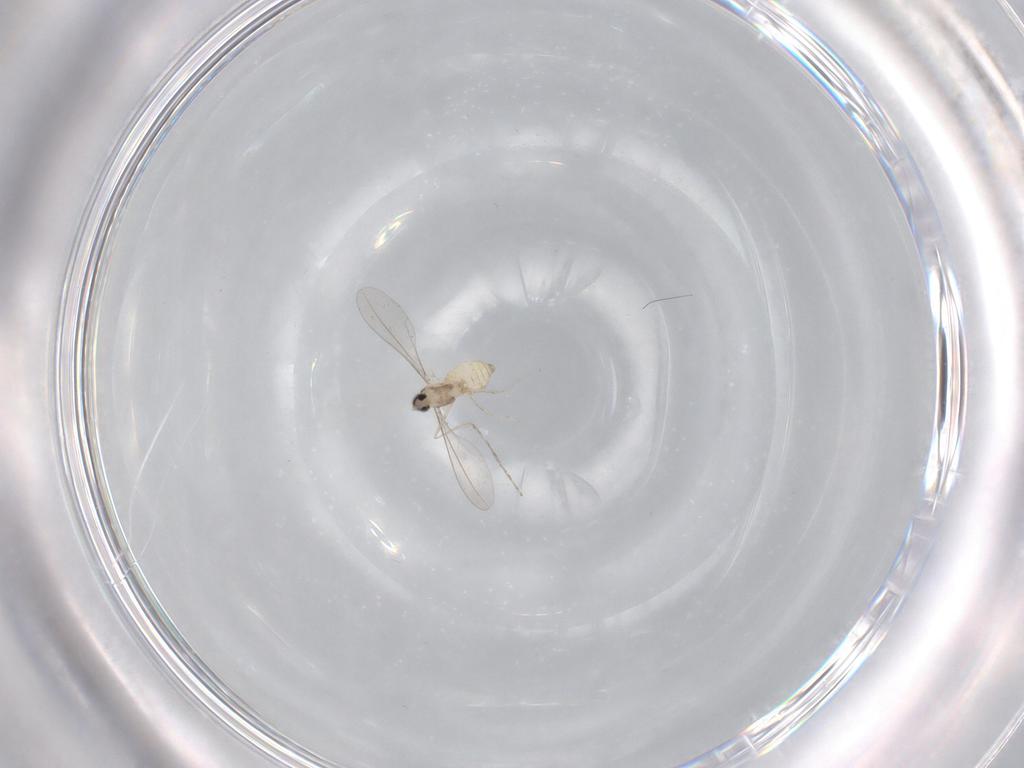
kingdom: Animalia
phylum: Arthropoda
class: Insecta
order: Diptera
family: Cecidomyiidae
